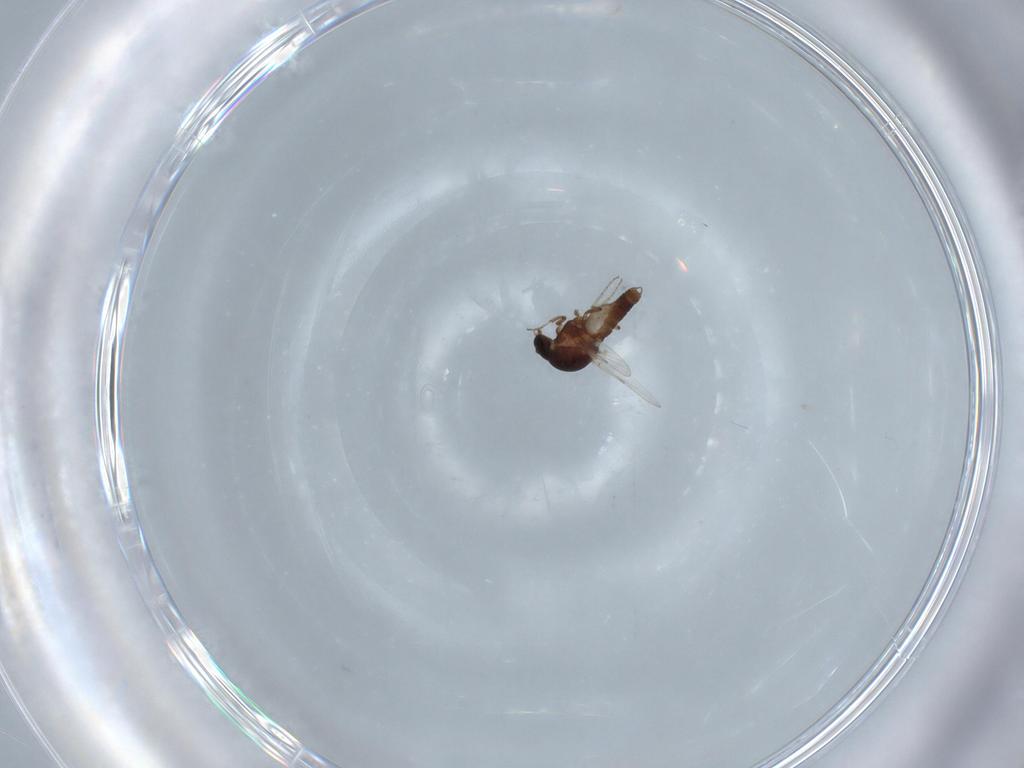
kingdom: Animalia
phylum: Arthropoda
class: Insecta
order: Diptera
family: Ceratopogonidae
